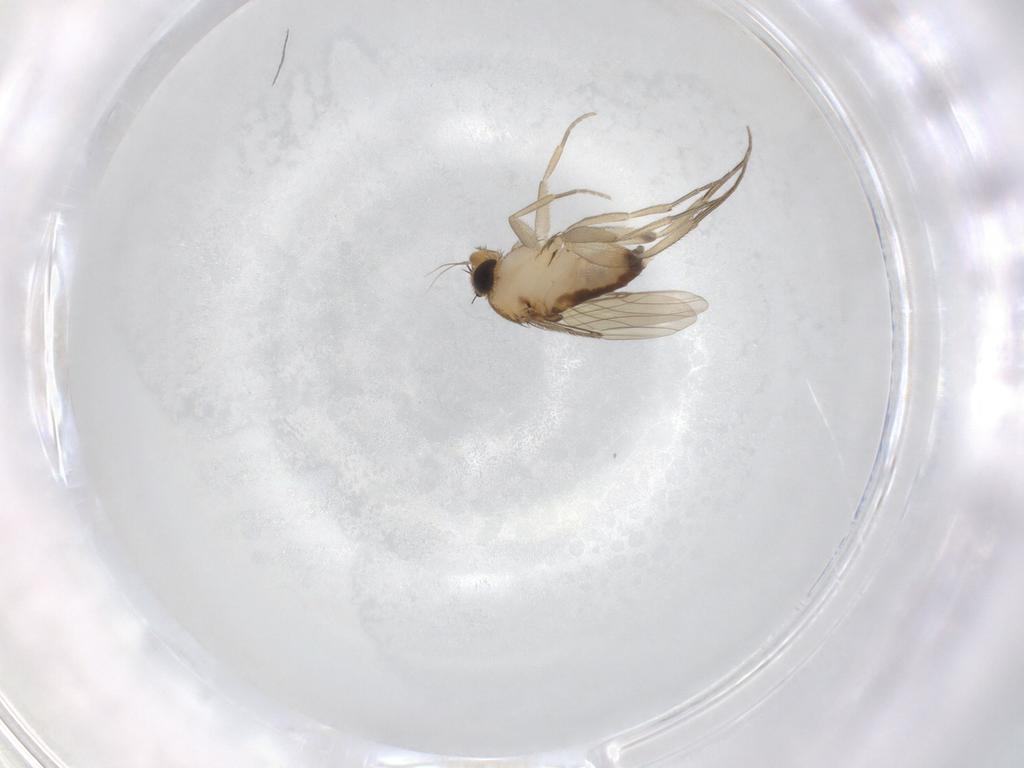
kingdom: Animalia
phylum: Arthropoda
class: Insecta
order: Diptera
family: Phoridae
